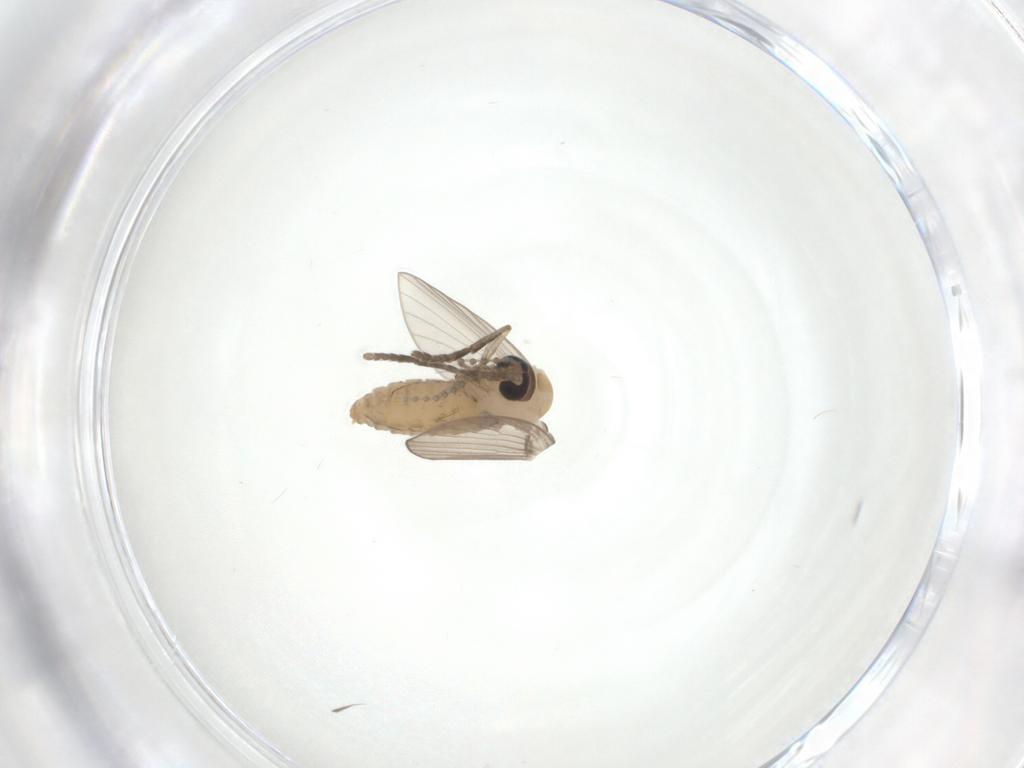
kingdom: Animalia
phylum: Arthropoda
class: Insecta
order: Diptera
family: Psychodidae
